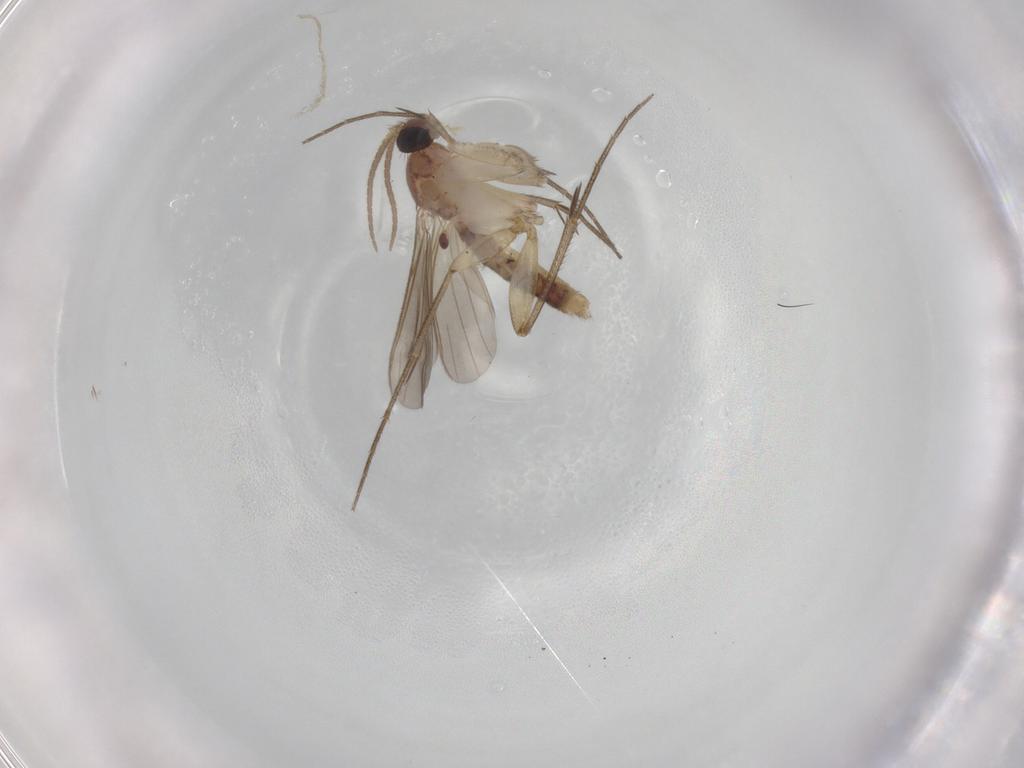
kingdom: Animalia
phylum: Arthropoda
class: Insecta
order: Diptera
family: Mycetophilidae
